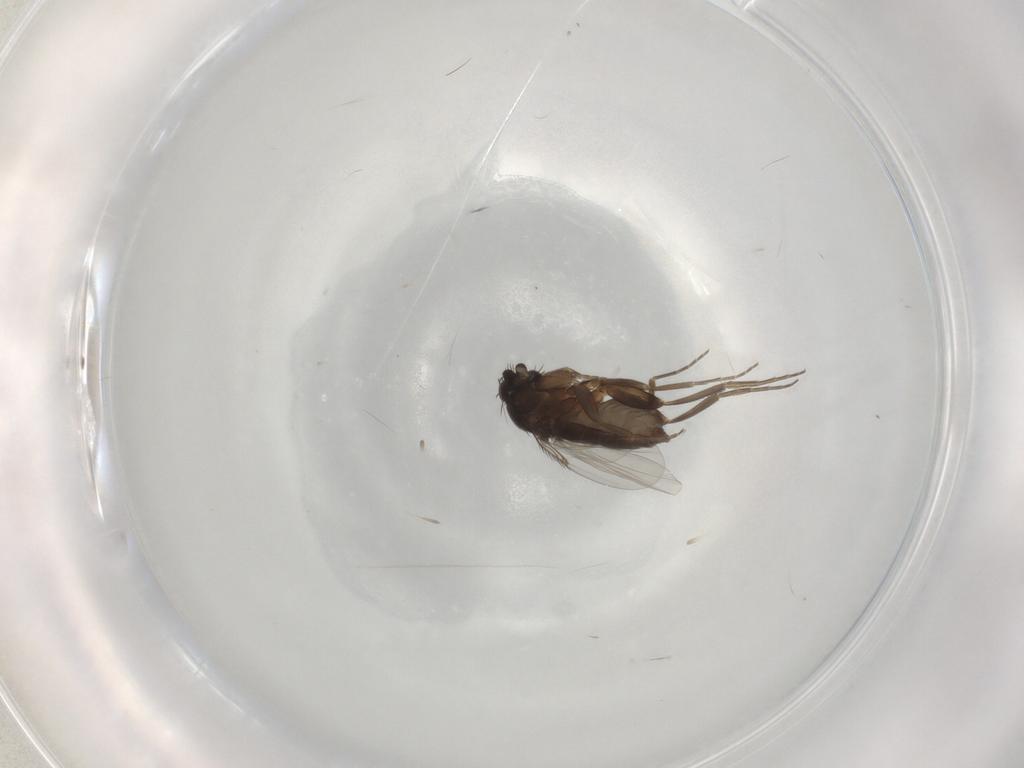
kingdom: Animalia
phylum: Arthropoda
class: Insecta
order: Diptera
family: Phoridae
